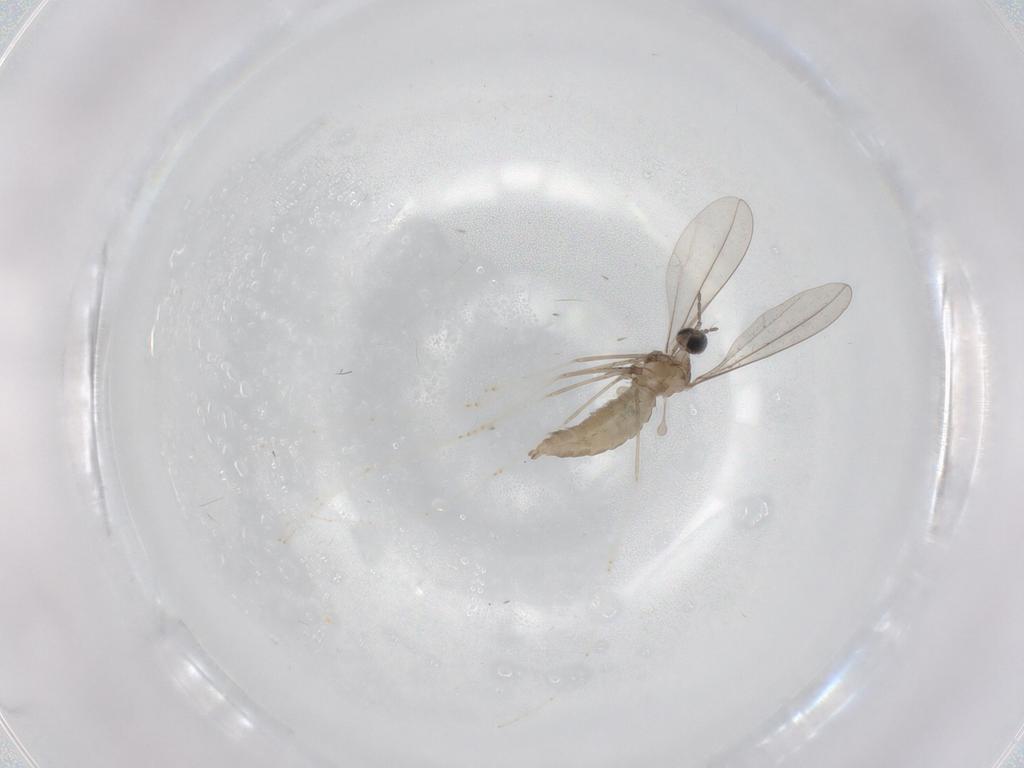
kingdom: Animalia
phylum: Arthropoda
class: Insecta
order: Diptera
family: Cecidomyiidae
